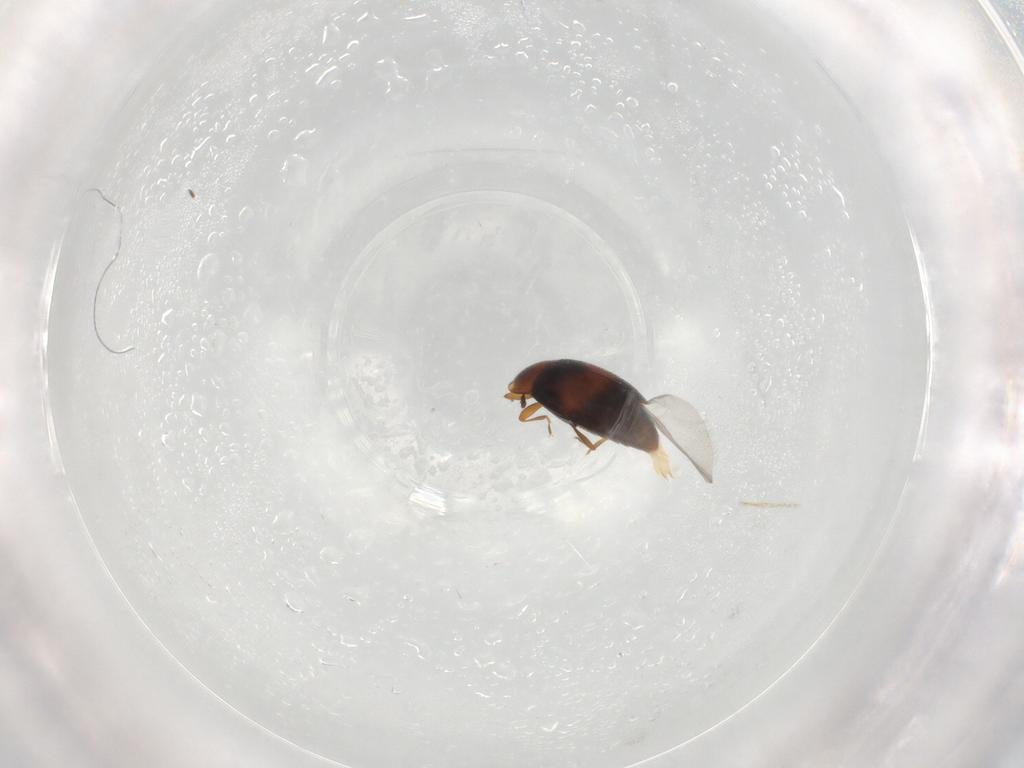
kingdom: Animalia
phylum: Arthropoda
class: Insecta
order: Coleoptera
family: Corylophidae
